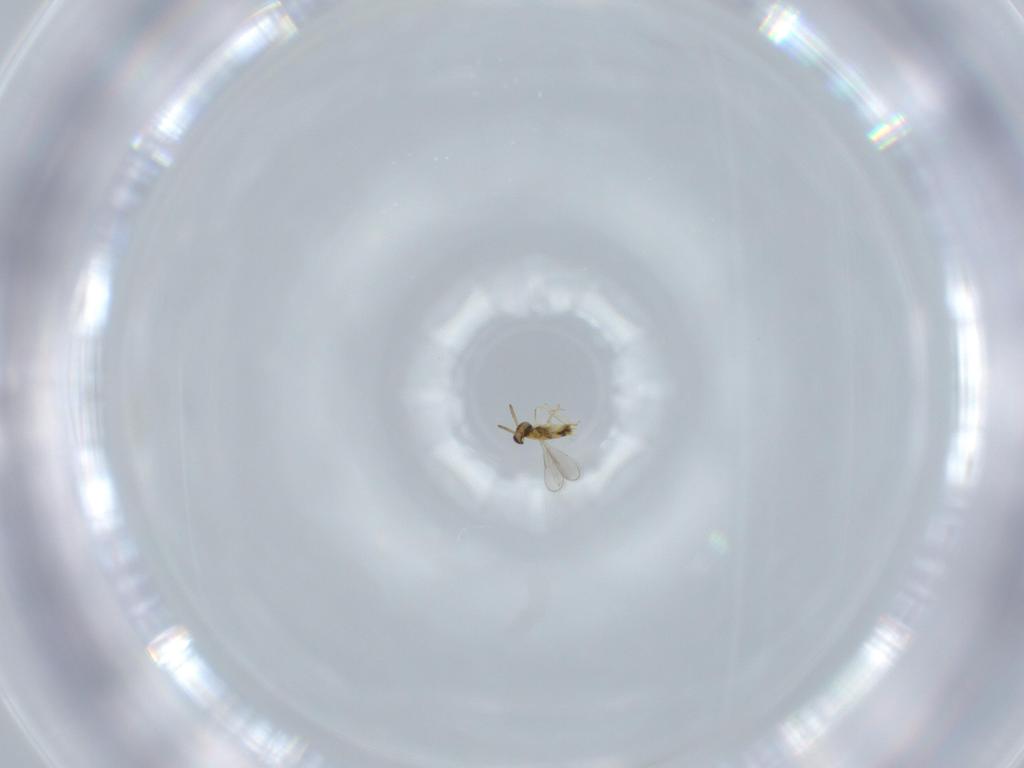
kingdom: Animalia
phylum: Arthropoda
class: Insecta
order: Hymenoptera
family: Aphelinidae
